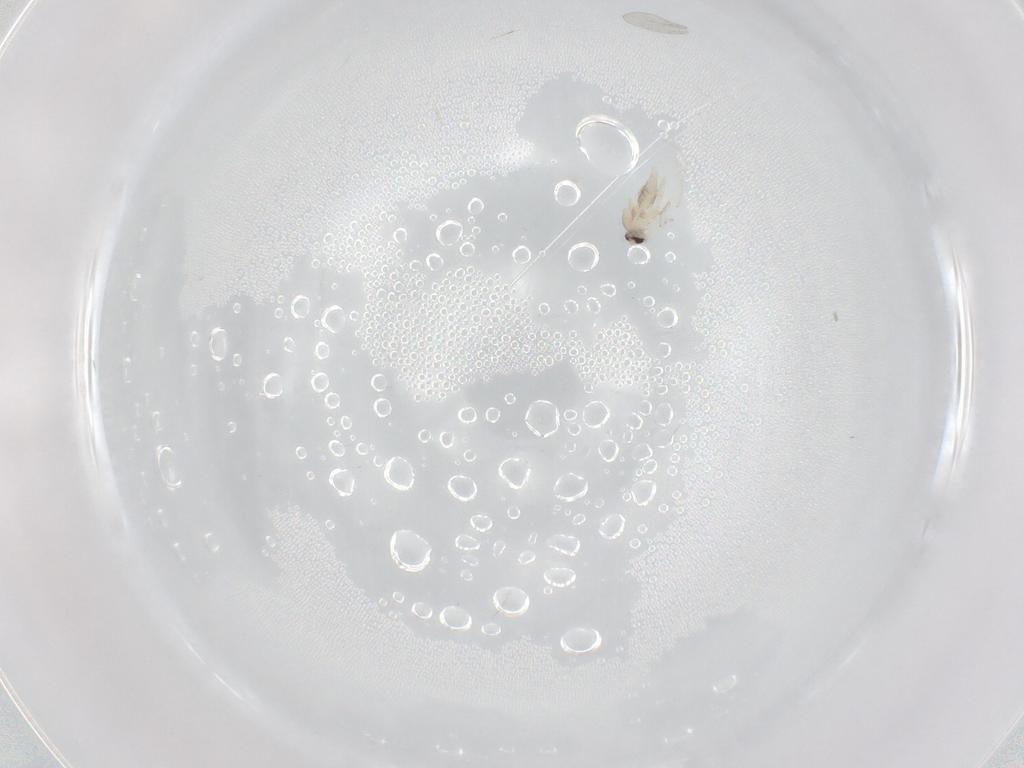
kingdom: Animalia
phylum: Arthropoda
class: Insecta
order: Diptera
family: Cecidomyiidae
